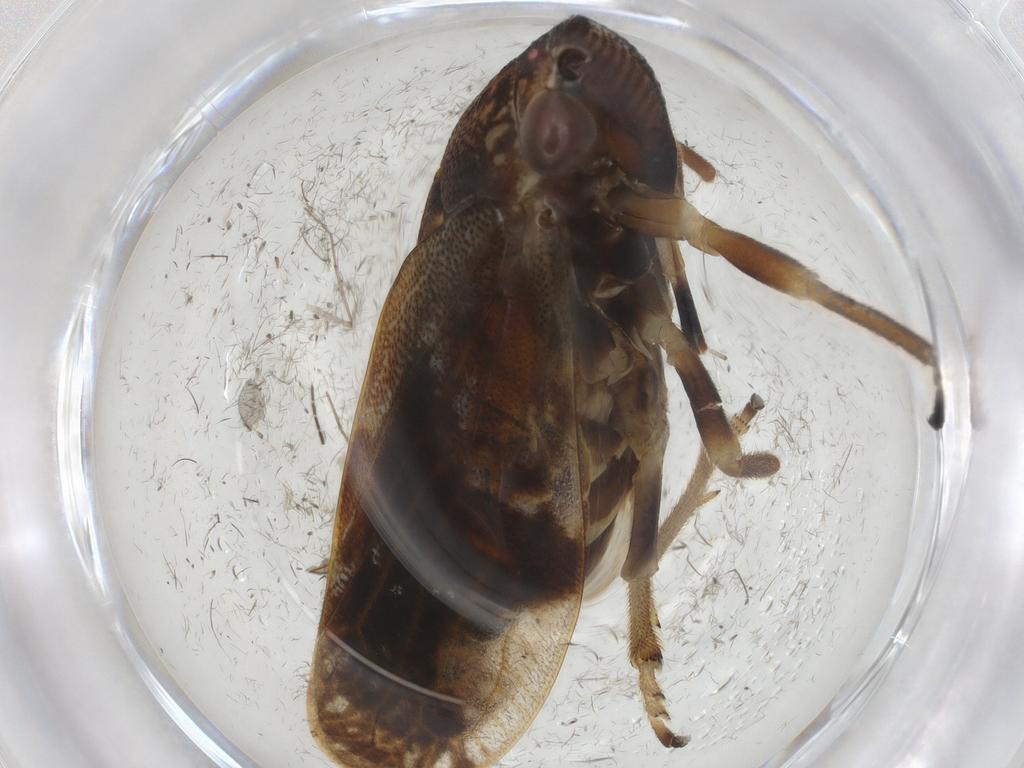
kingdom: Animalia
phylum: Arthropoda
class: Insecta
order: Hemiptera
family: Aphrophoridae
